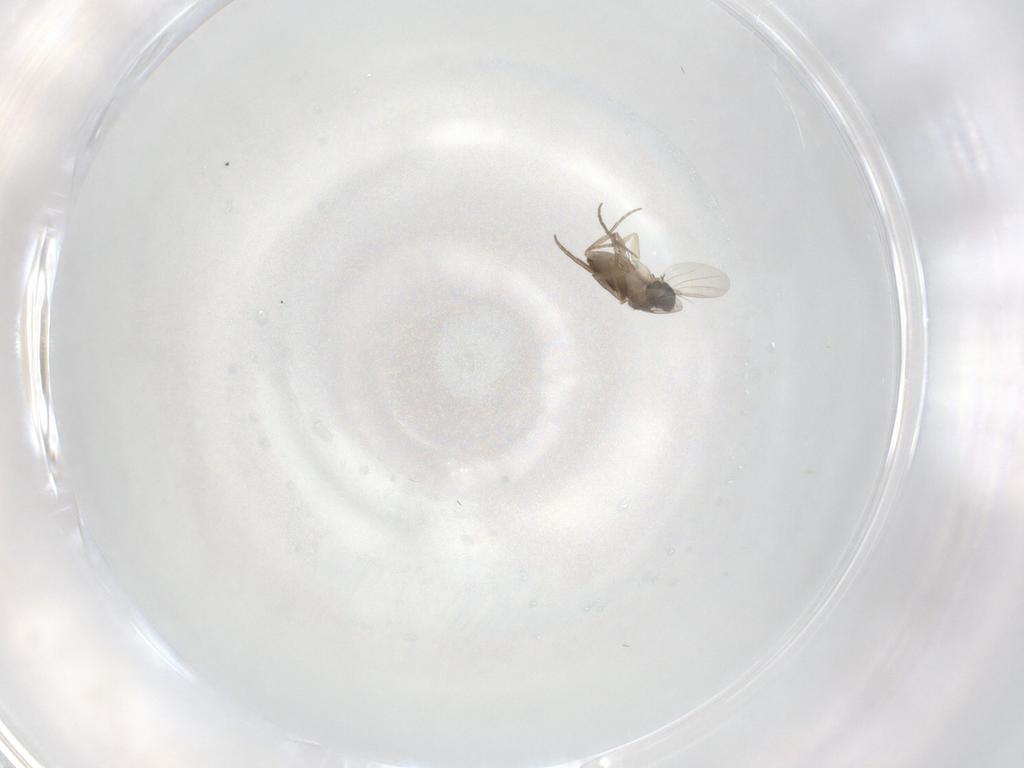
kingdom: Animalia
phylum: Arthropoda
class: Insecta
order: Diptera
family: Phoridae
